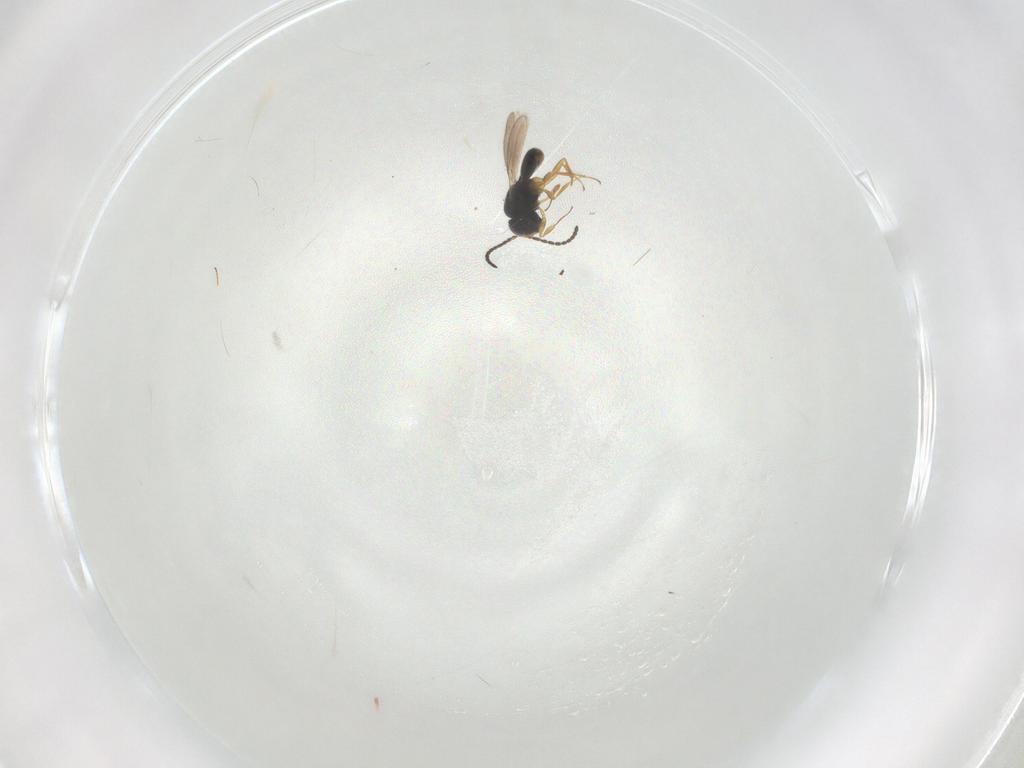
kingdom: Animalia
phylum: Arthropoda
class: Insecta
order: Hymenoptera
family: Scelionidae
